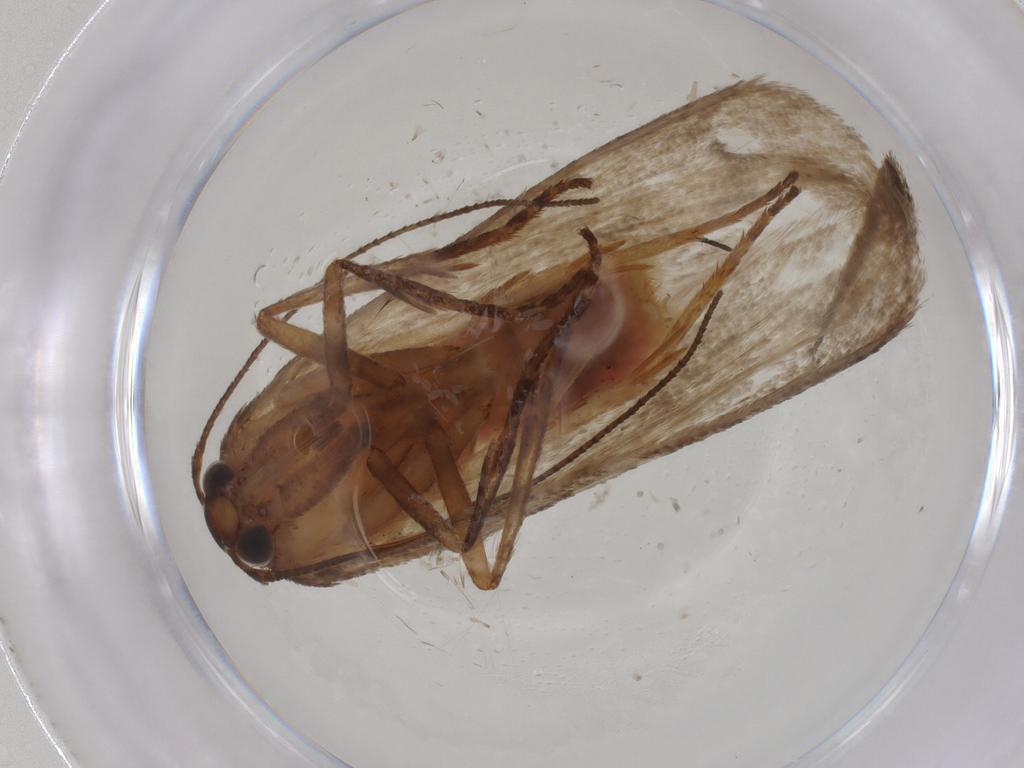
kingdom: Animalia
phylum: Arthropoda
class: Insecta
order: Lepidoptera
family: Cosmopterigidae
